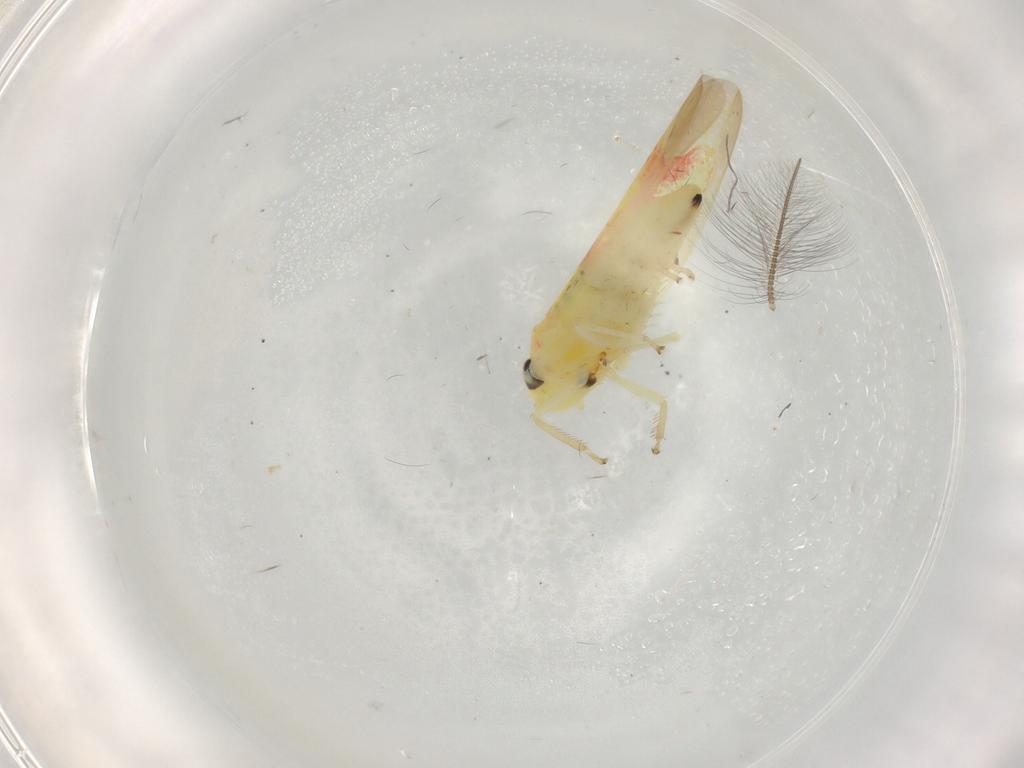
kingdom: Animalia
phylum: Arthropoda
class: Insecta
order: Hemiptera
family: Cicadellidae
